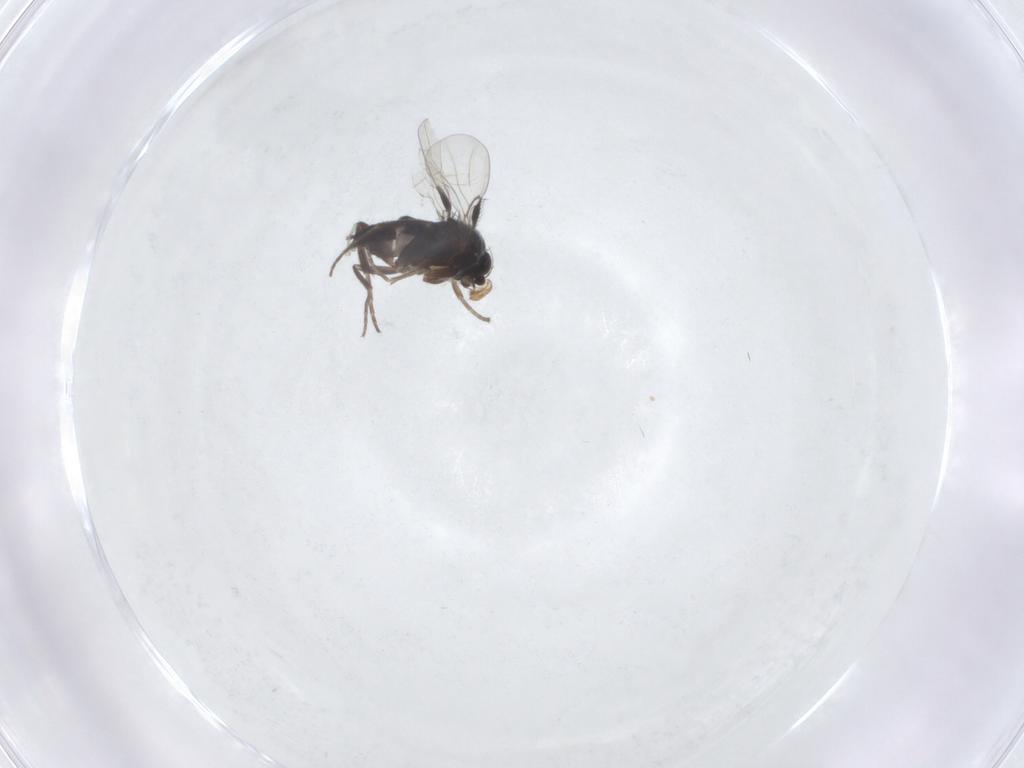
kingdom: Animalia
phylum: Arthropoda
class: Insecta
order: Diptera
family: Phoridae
